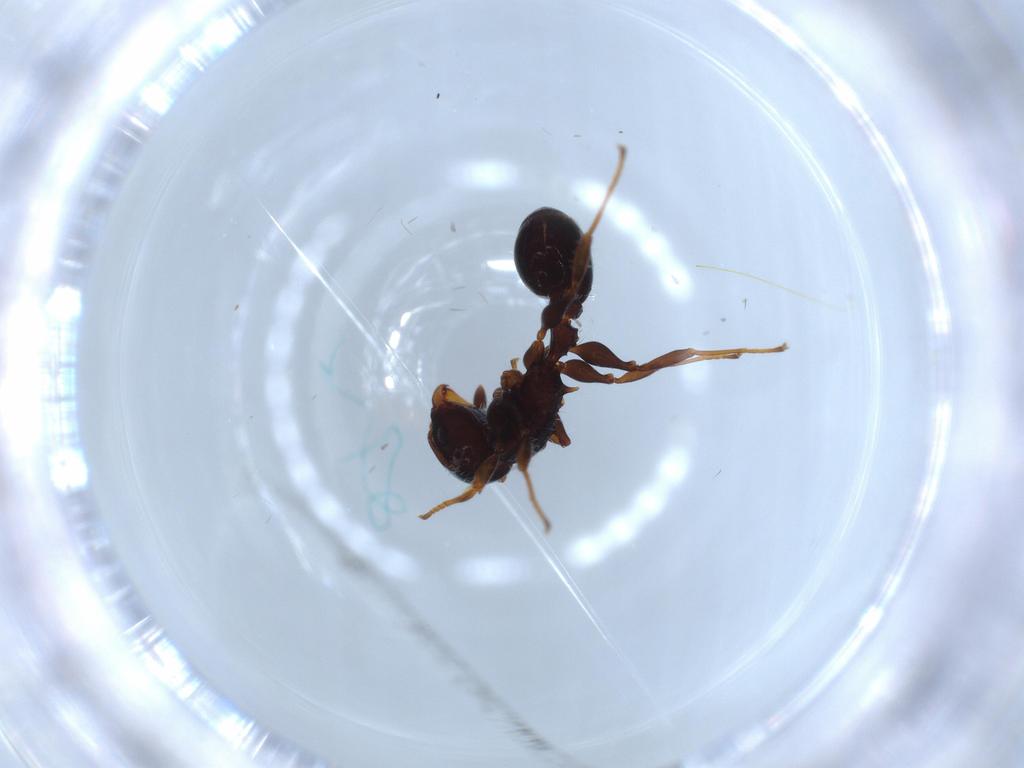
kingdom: Animalia
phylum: Arthropoda
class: Insecta
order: Hymenoptera
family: Formicidae
